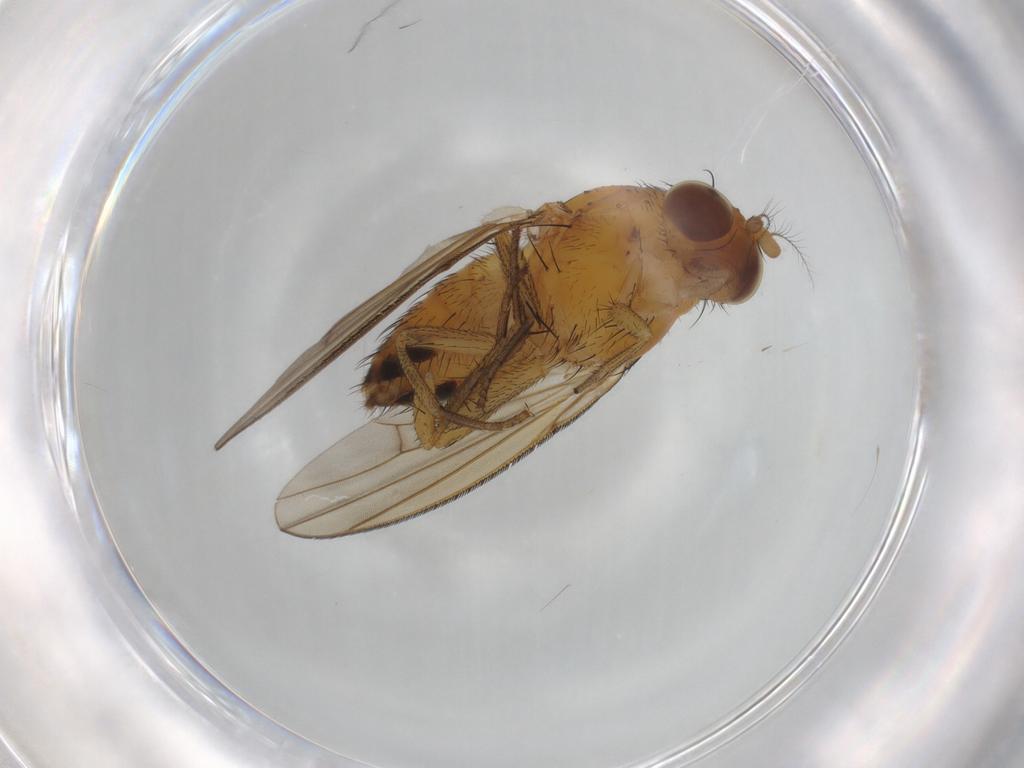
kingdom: Animalia
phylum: Arthropoda
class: Insecta
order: Diptera
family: Lauxaniidae
